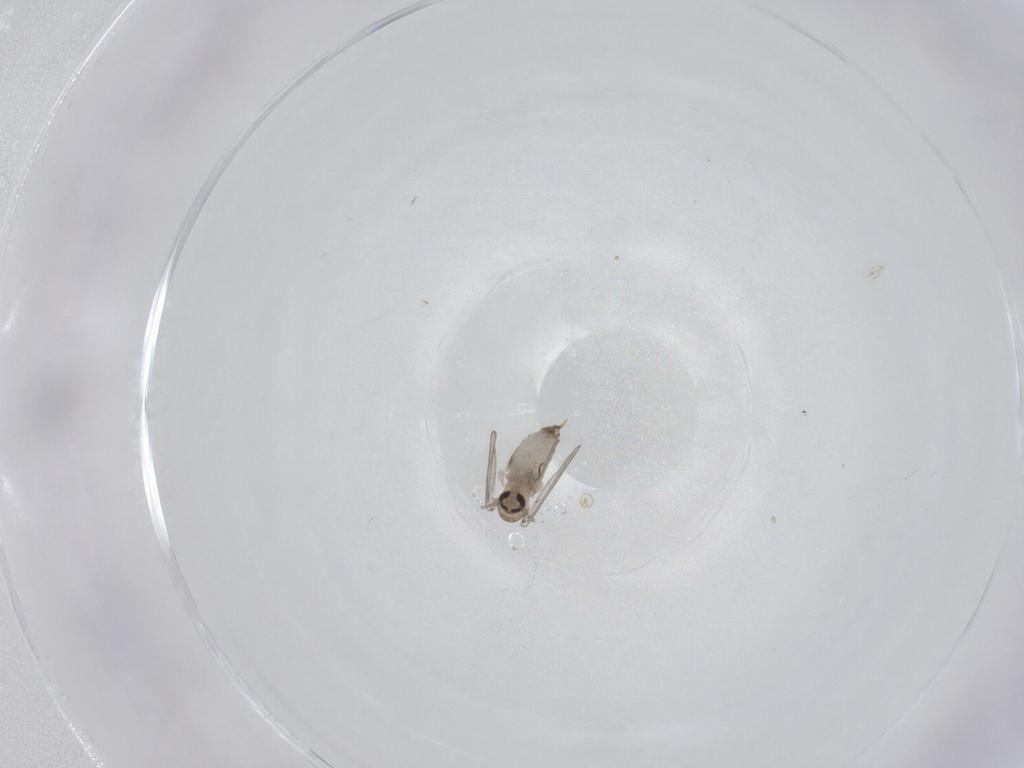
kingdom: Animalia
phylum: Arthropoda
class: Insecta
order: Diptera
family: Psychodidae
